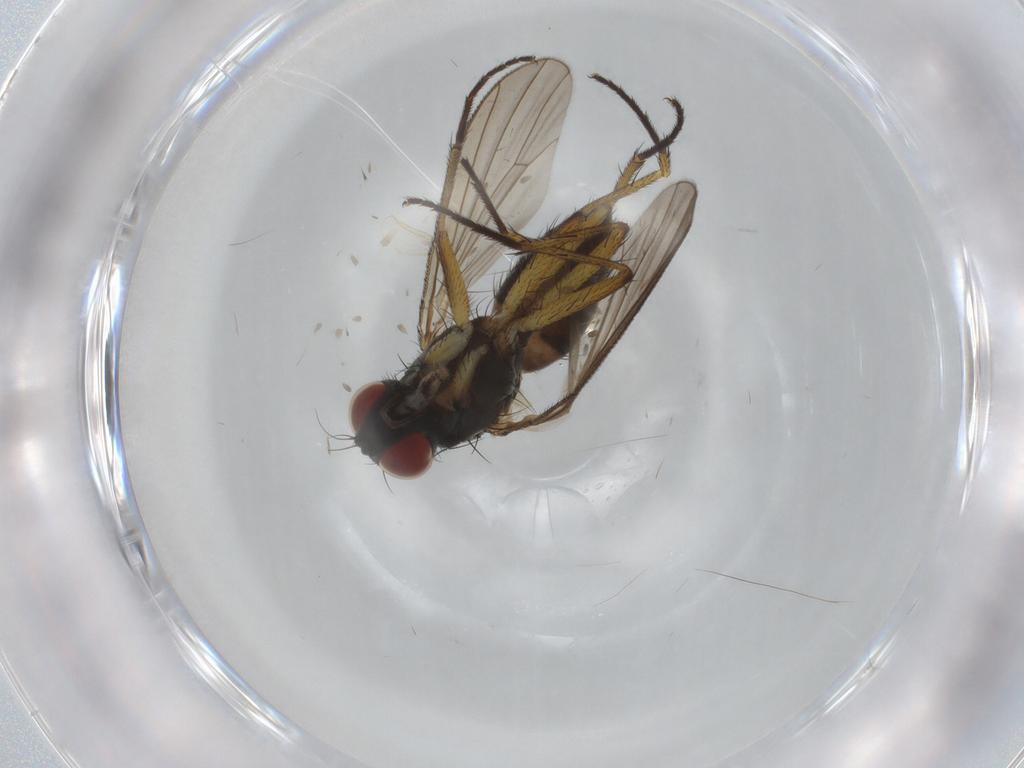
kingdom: Animalia
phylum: Arthropoda
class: Insecta
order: Diptera
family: Muscidae
